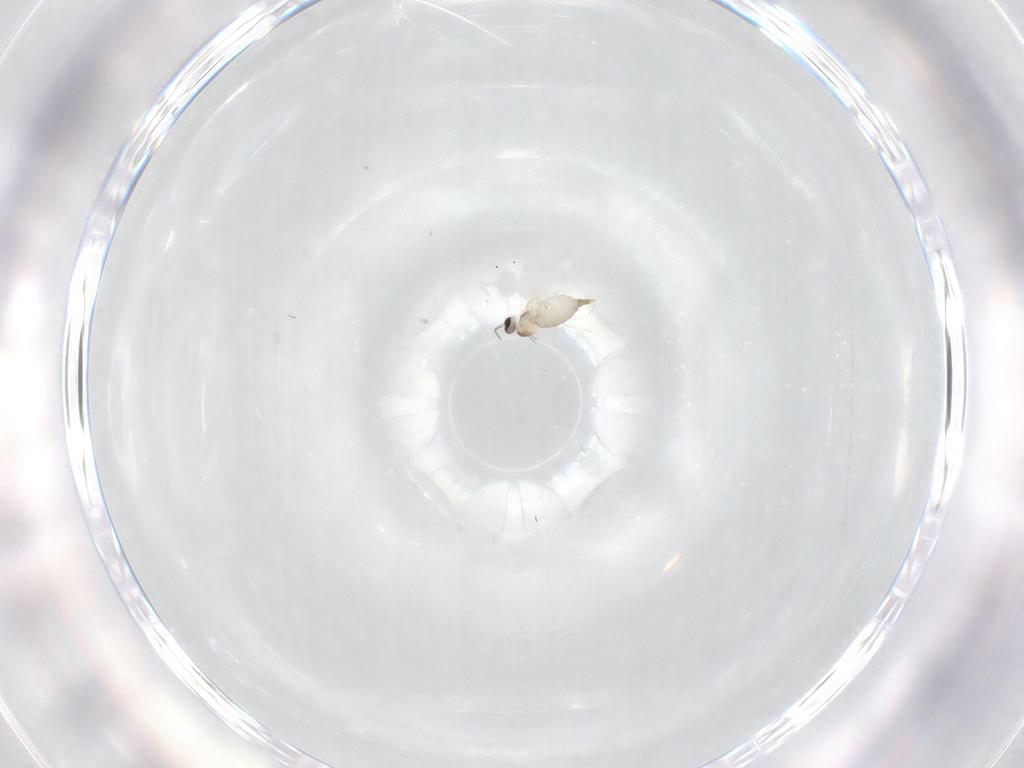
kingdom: Animalia
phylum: Arthropoda
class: Insecta
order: Diptera
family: Tabanidae
